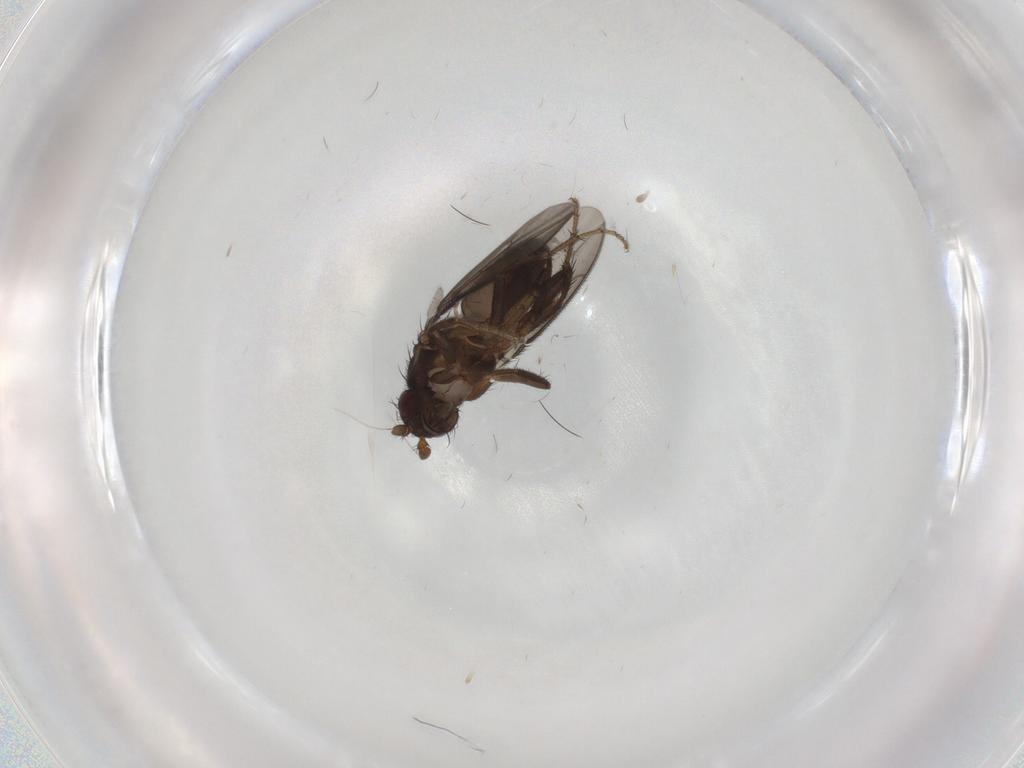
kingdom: Animalia
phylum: Arthropoda
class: Insecta
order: Diptera
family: Sphaeroceridae
